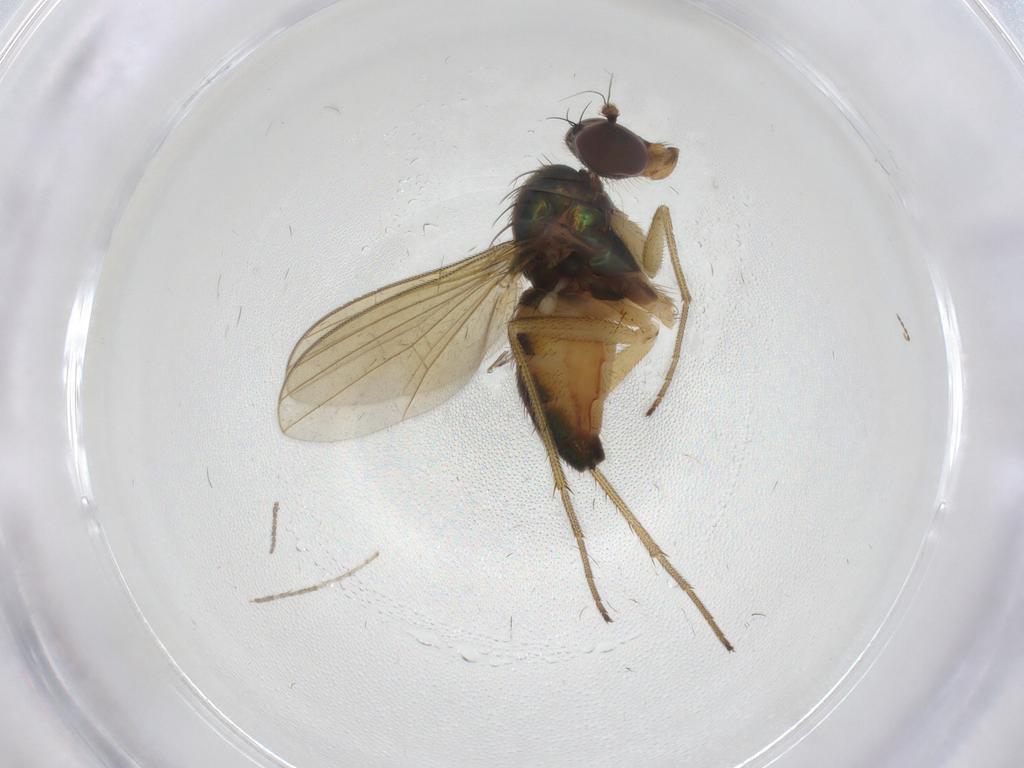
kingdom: Animalia
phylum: Arthropoda
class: Insecta
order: Diptera
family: Dolichopodidae
